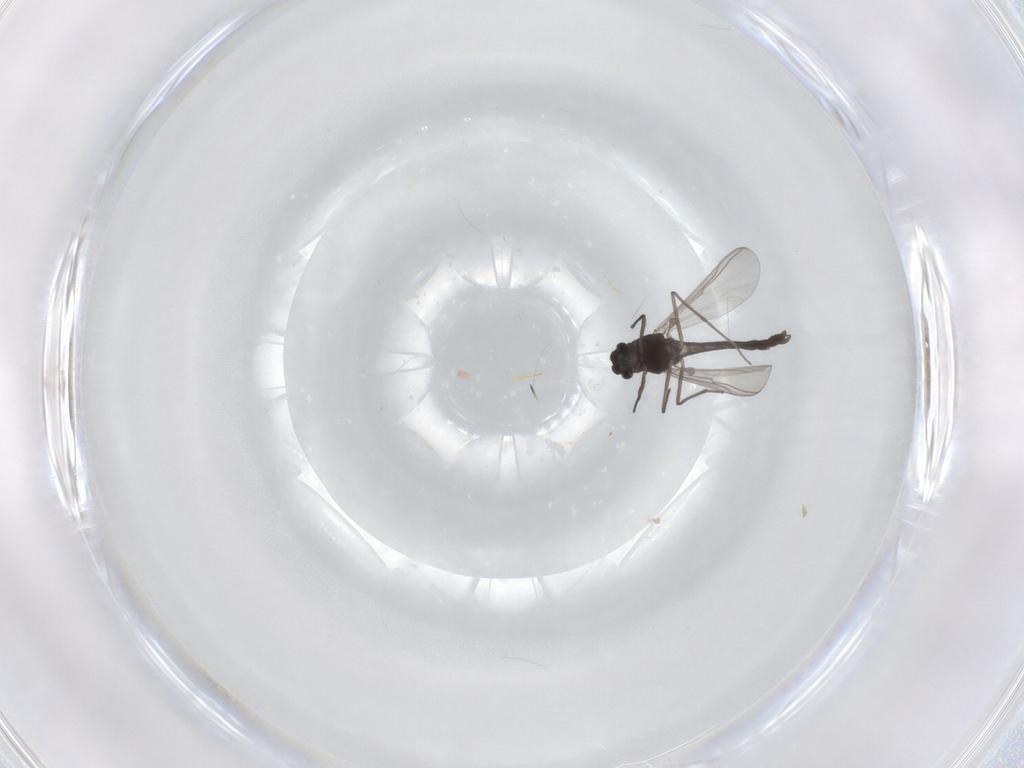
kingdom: Animalia
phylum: Arthropoda
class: Insecta
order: Diptera
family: Chironomidae
